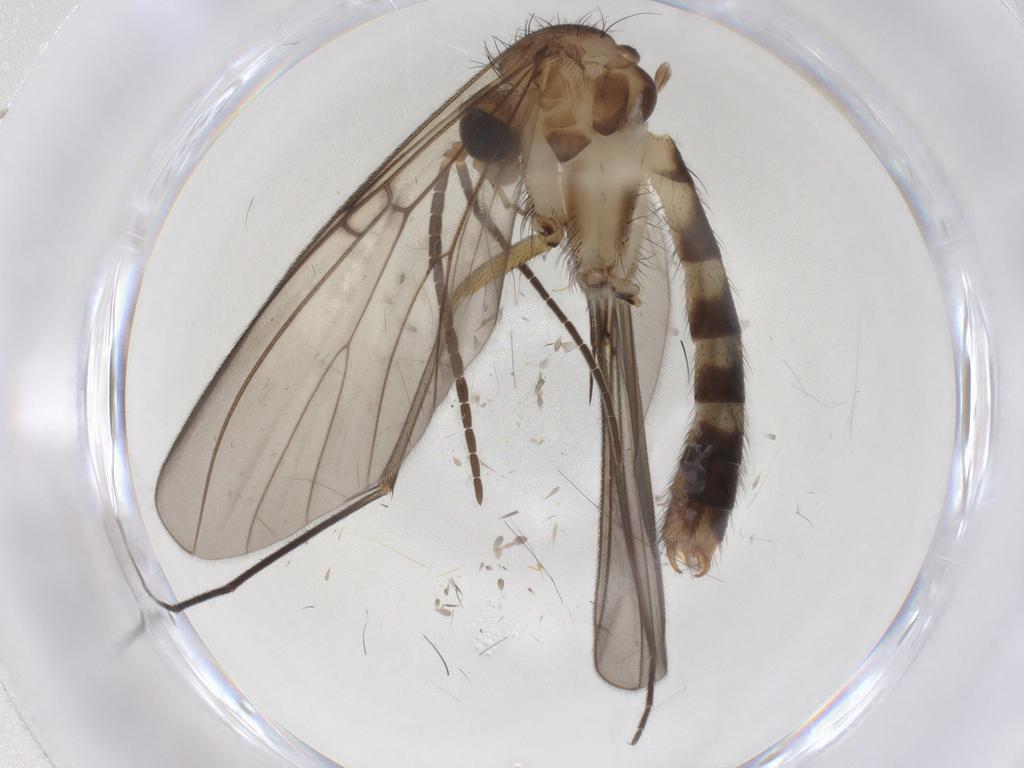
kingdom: Animalia
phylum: Arthropoda
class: Insecta
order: Diptera
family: Mycetophilidae
